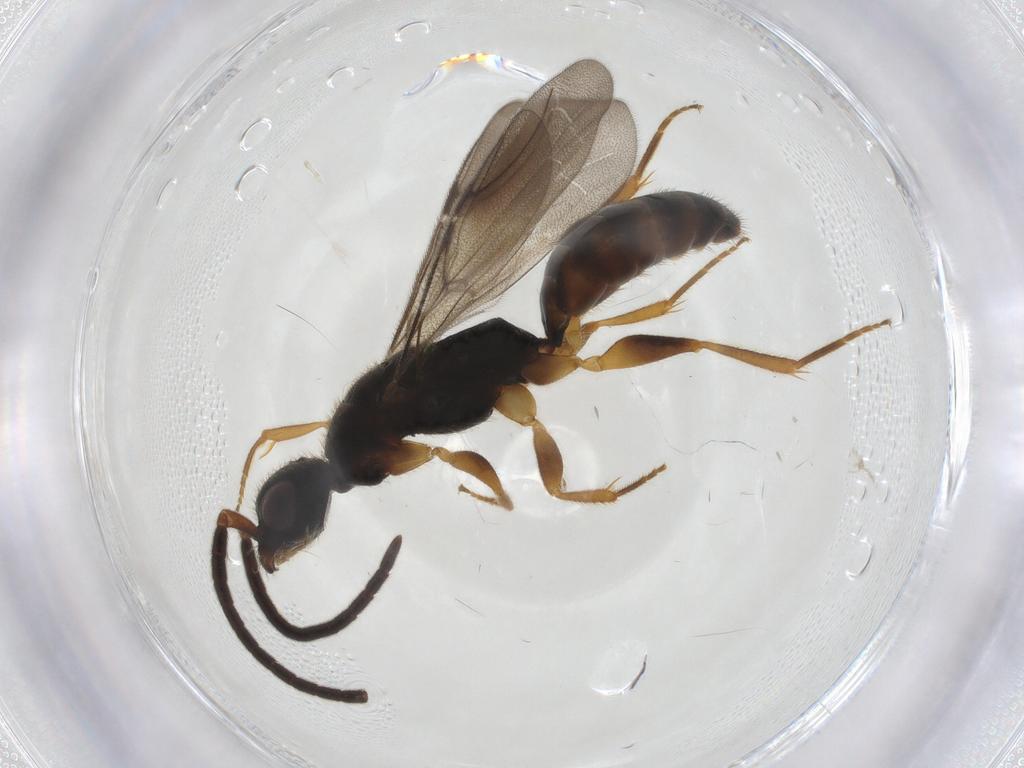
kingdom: Animalia
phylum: Arthropoda
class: Insecta
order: Hymenoptera
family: Bethylidae
